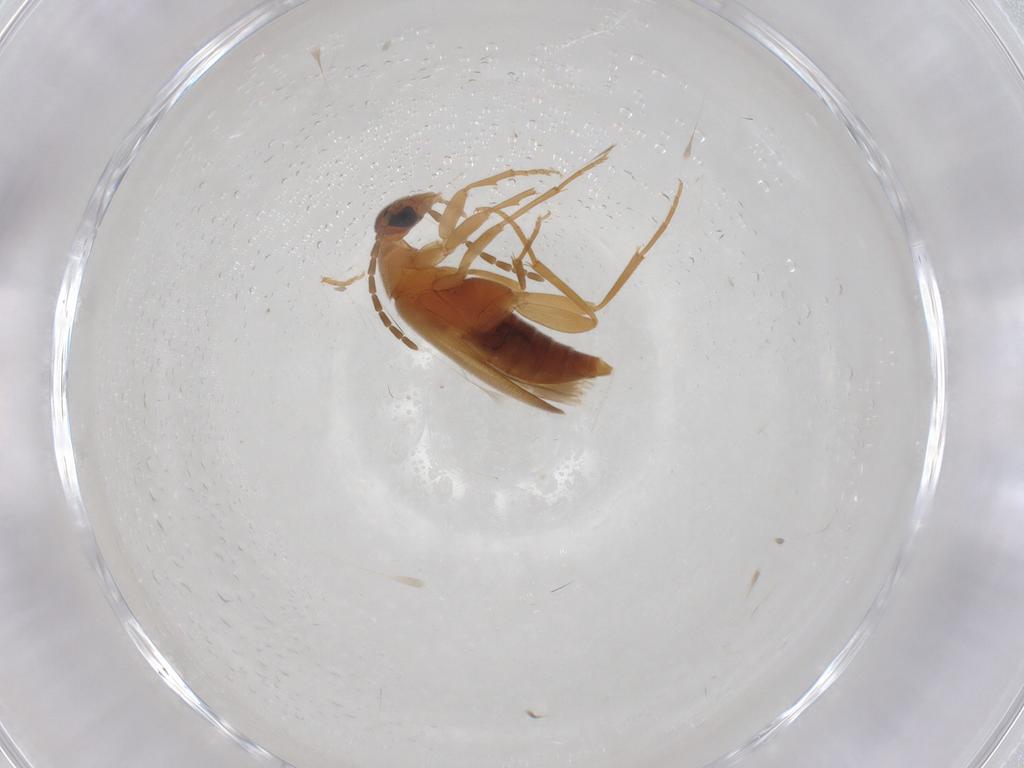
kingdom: Animalia
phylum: Arthropoda
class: Insecta
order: Coleoptera
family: Scraptiidae
